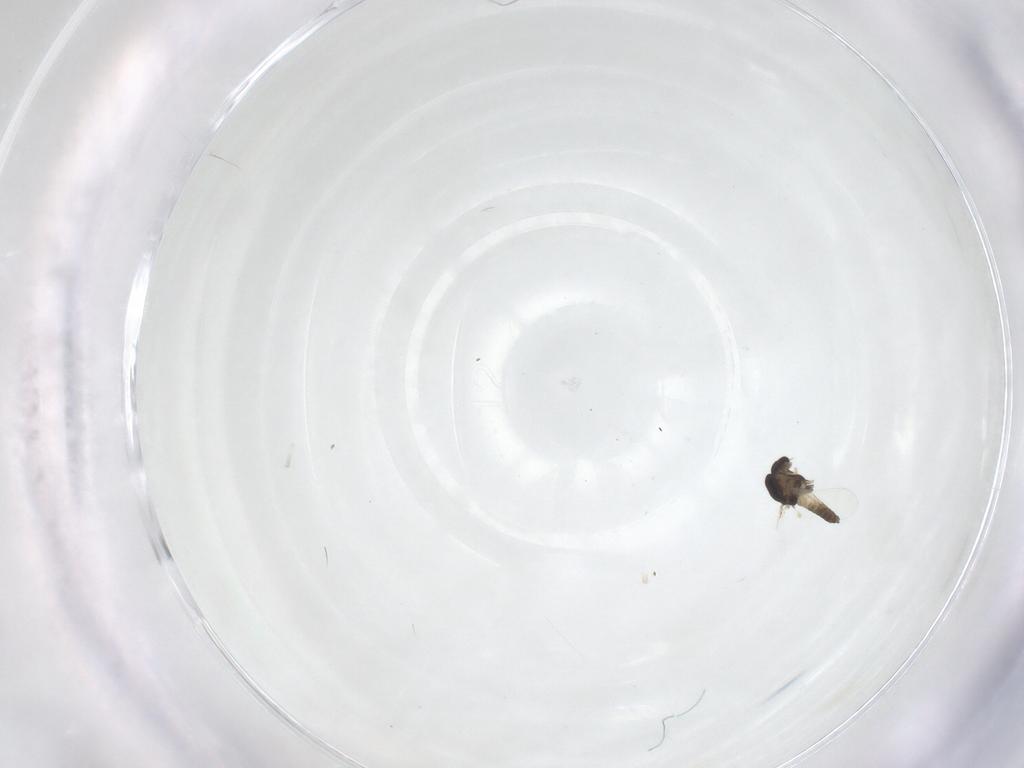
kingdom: Animalia
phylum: Arthropoda
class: Insecta
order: Diptera
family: Chironomidae
